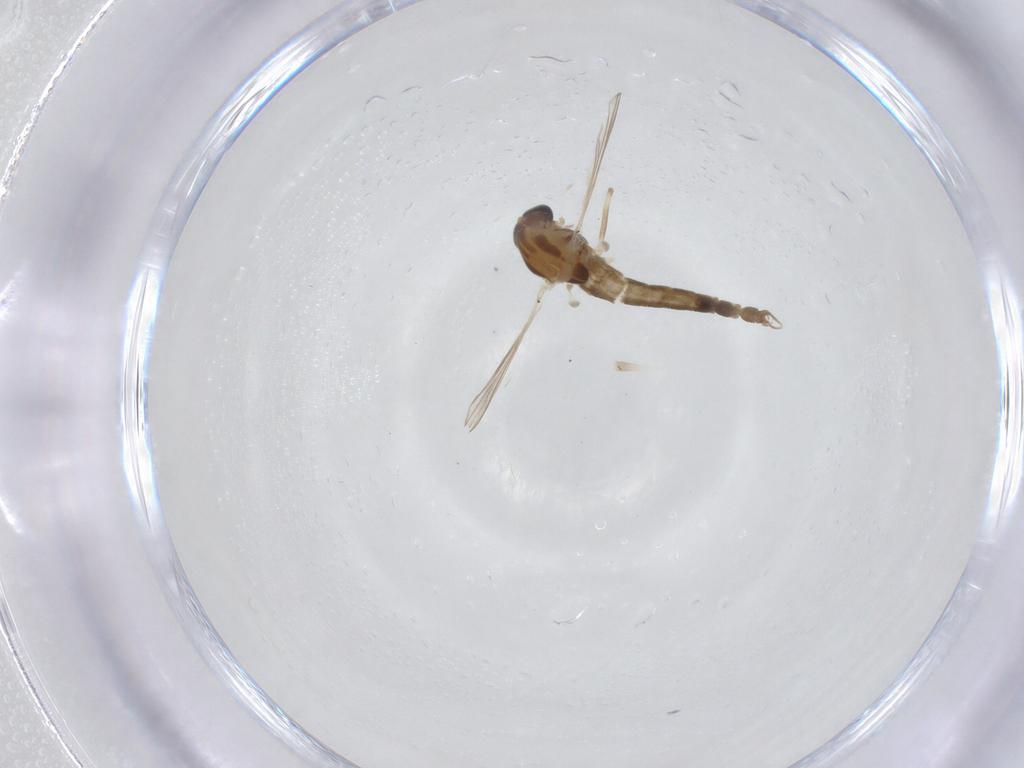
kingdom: Animalia
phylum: Arthropoda
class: Insecta
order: Diptera
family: Chironomidae
